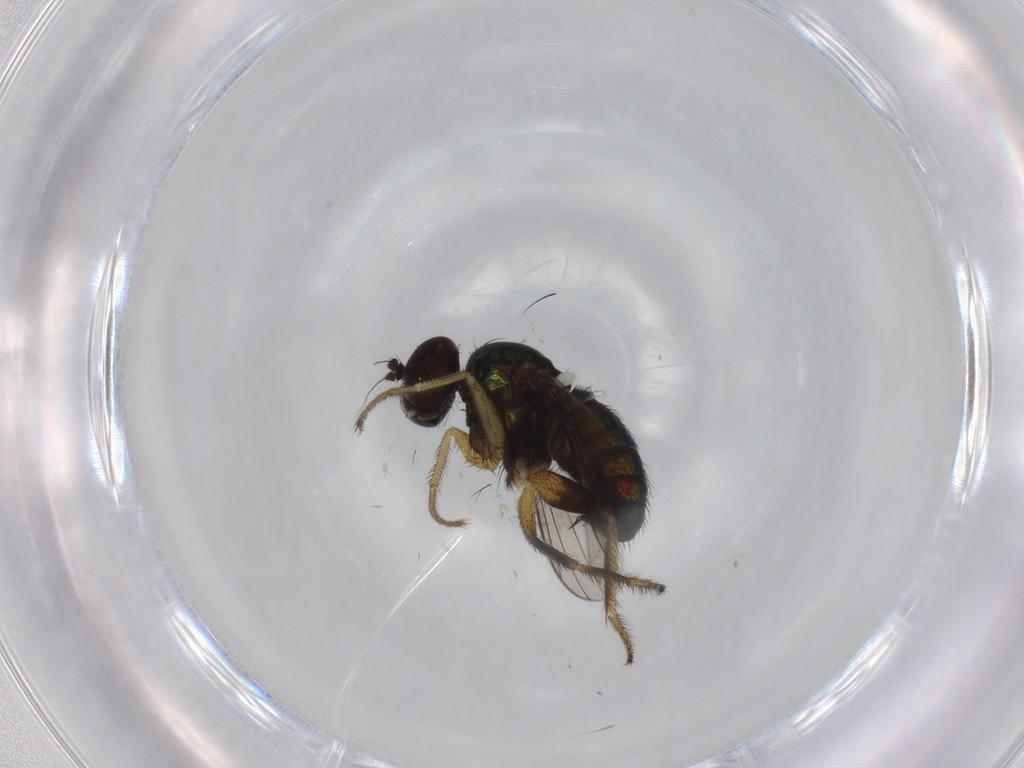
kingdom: Animalia
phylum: Arthropoda
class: Insecta
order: Diptera
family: Dolichopodidae
